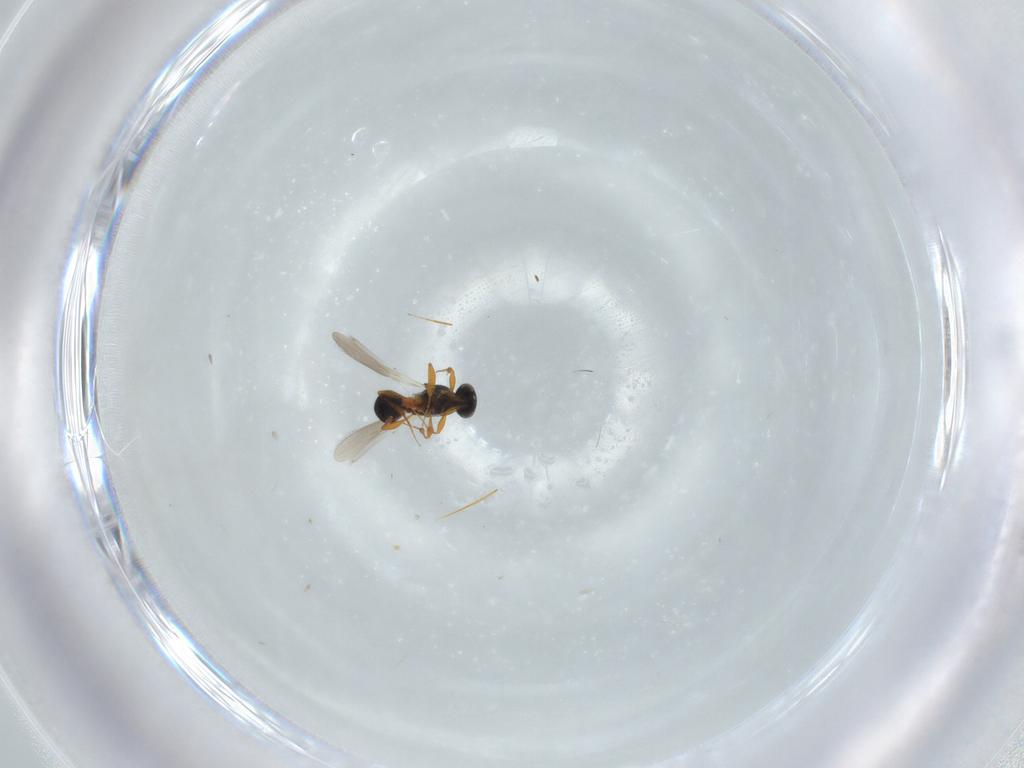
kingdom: Animalia
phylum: Arthropoda
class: Insecta
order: Hymenoptera
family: Platygastridae
